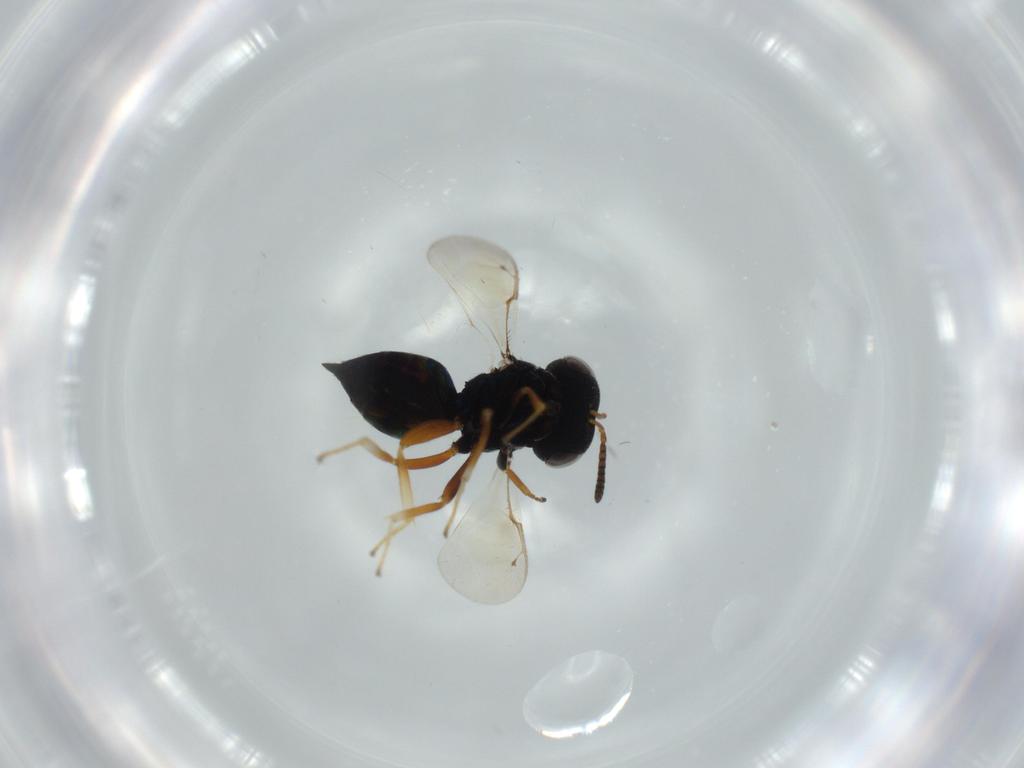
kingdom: Animalia
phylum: Arthropoda
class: Insecta
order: Hymenoptera
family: Pteromalidae
